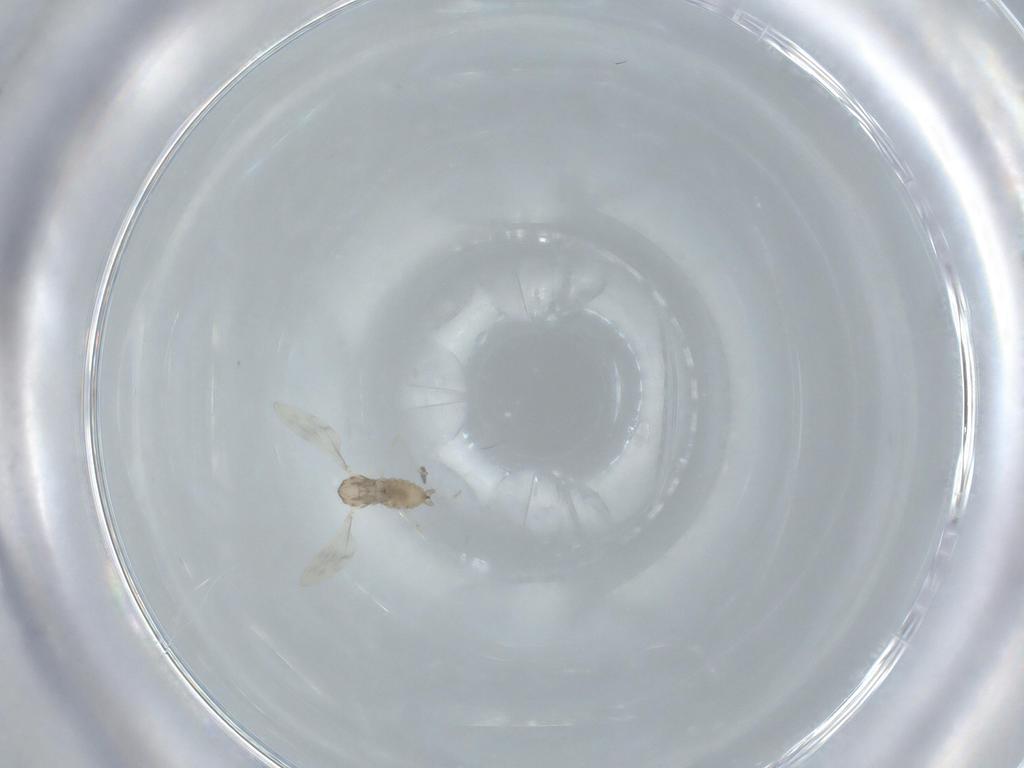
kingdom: Animalia
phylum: Arthropoda
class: Insecta
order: Diptera
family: Cecidomyiidae
